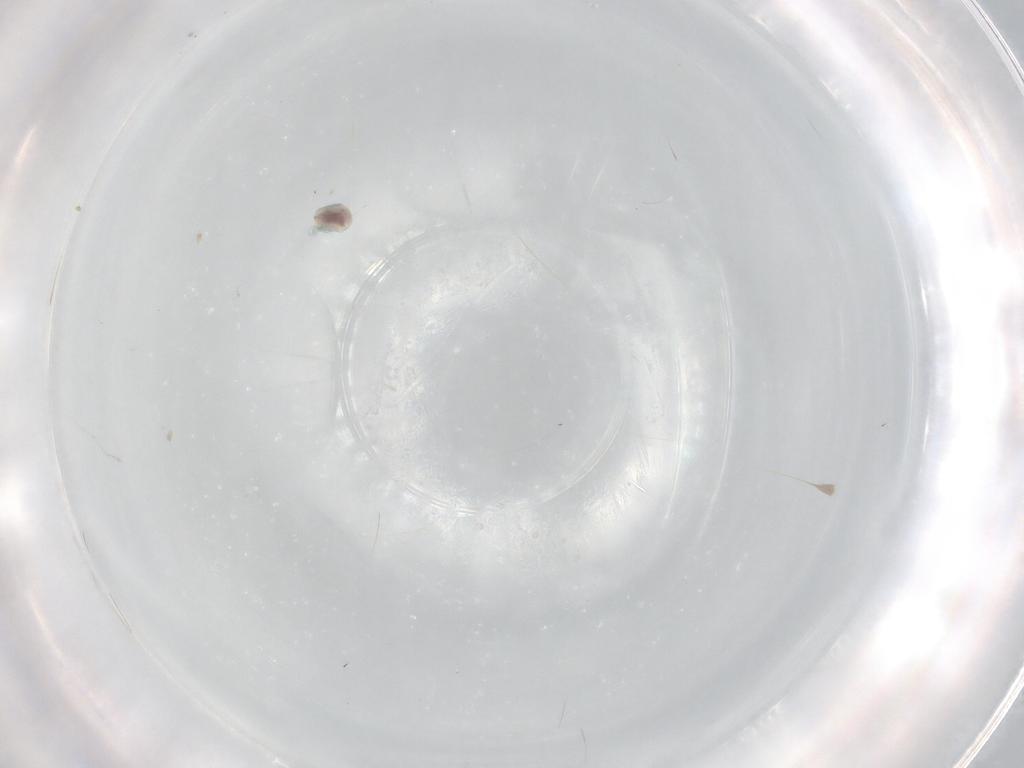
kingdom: Animalia
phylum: Arthropoda
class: Arachnida
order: Trombidiformes
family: Unionicolidae
